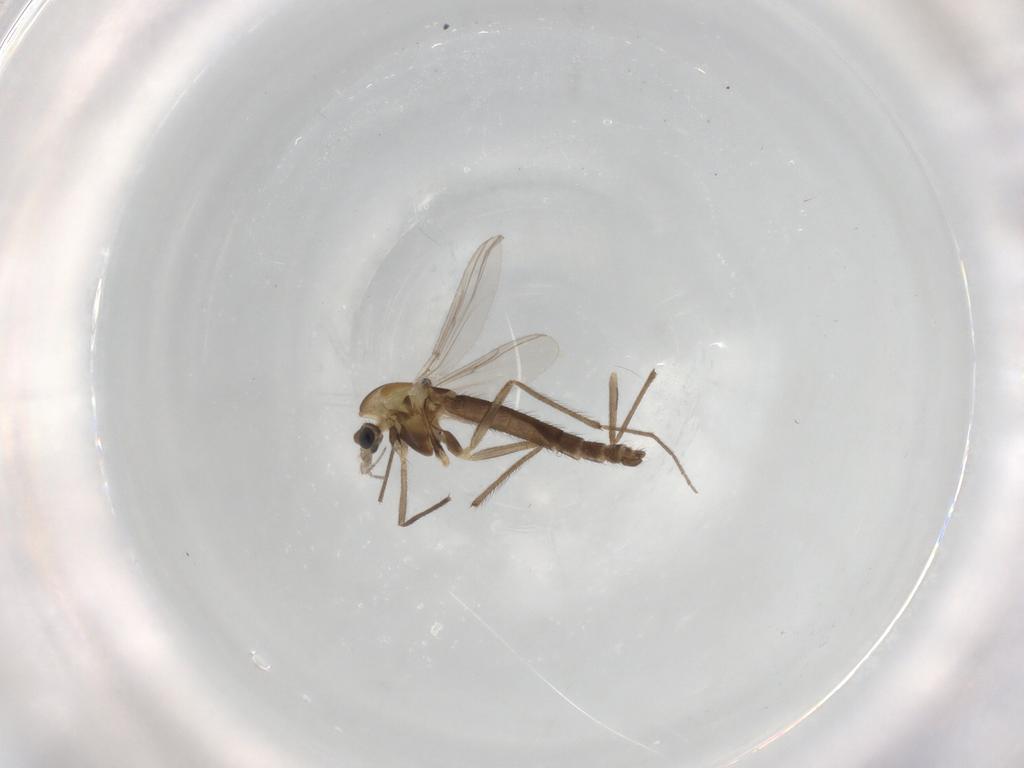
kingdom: Animalia
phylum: Arthropoda
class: Insecta
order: Diptera
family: Chironomidae
